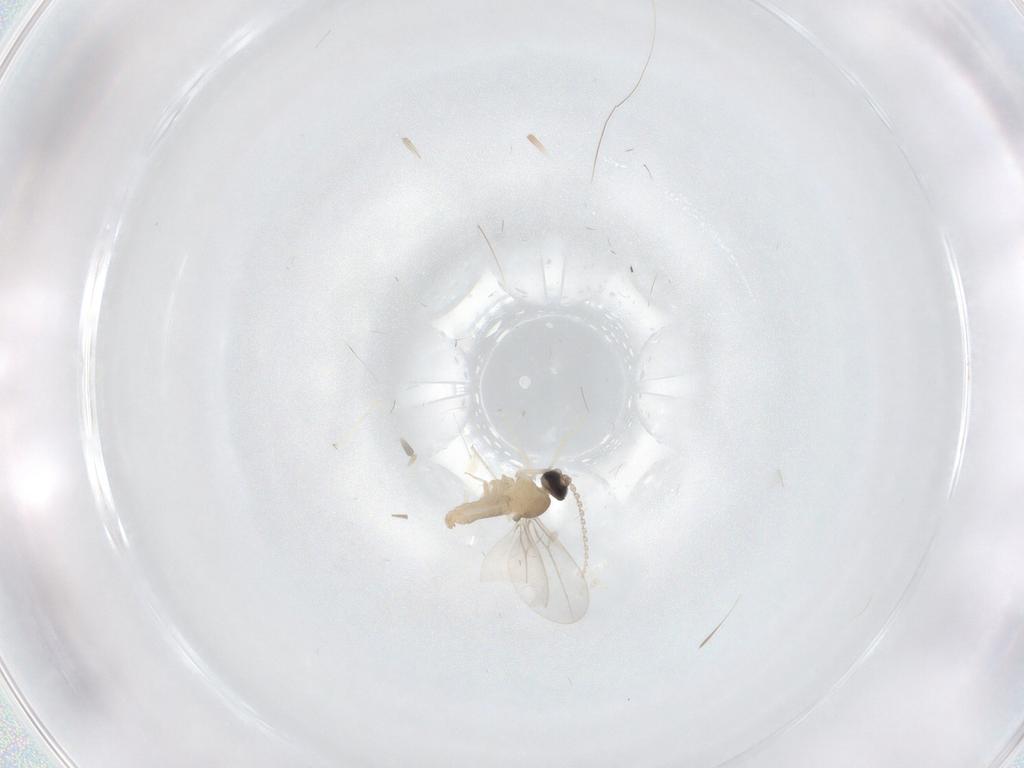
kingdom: Animalia
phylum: Arthropoda
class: Insecta
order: Diptera
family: Cecidomyiidae
